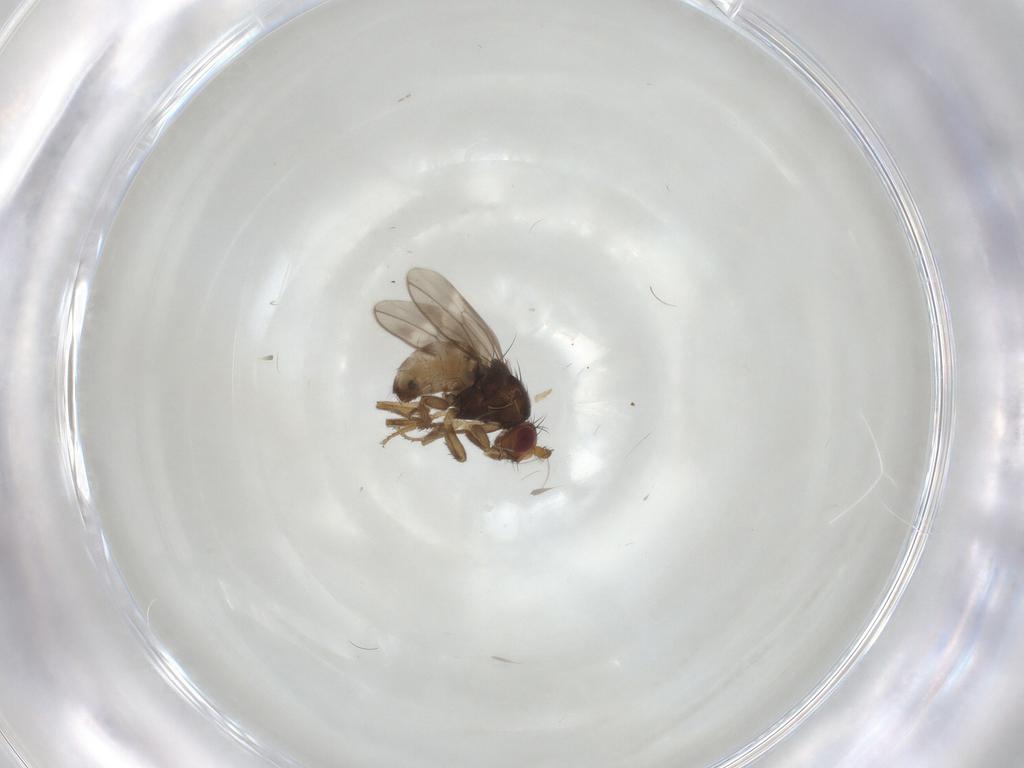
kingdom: Animalia
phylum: Arthropoda
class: Insecta
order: Diptera
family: Sphaeroceridae
